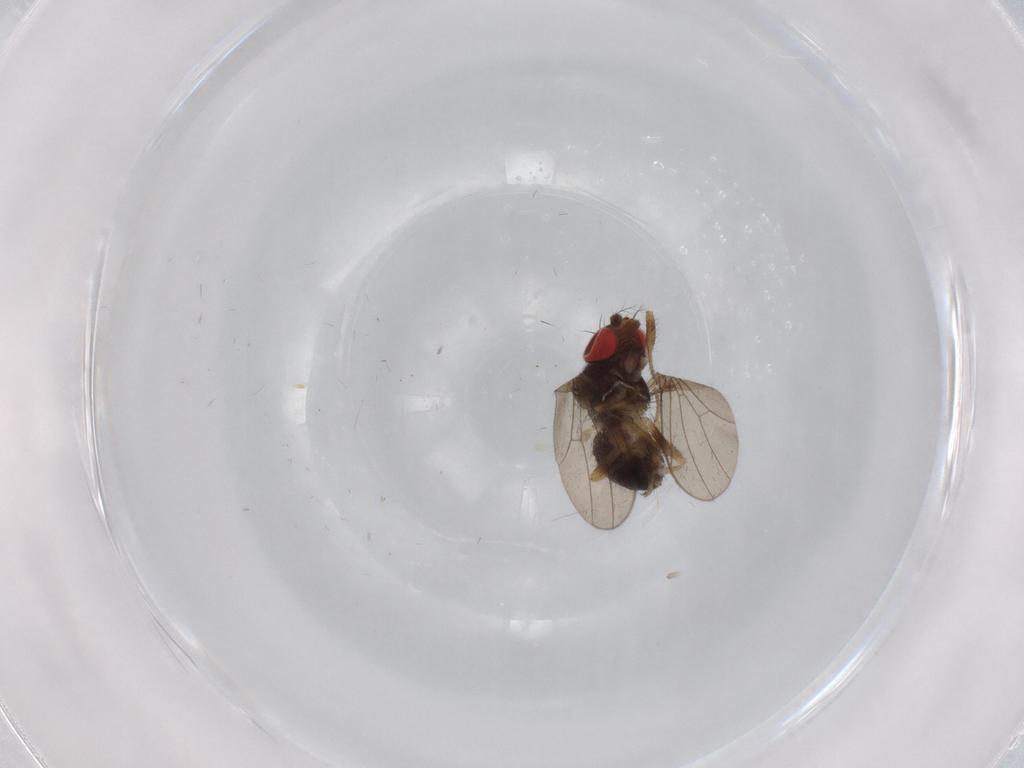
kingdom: Animalia
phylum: Arthropoda
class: Insecta
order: Diptera
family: Drosophilidae
